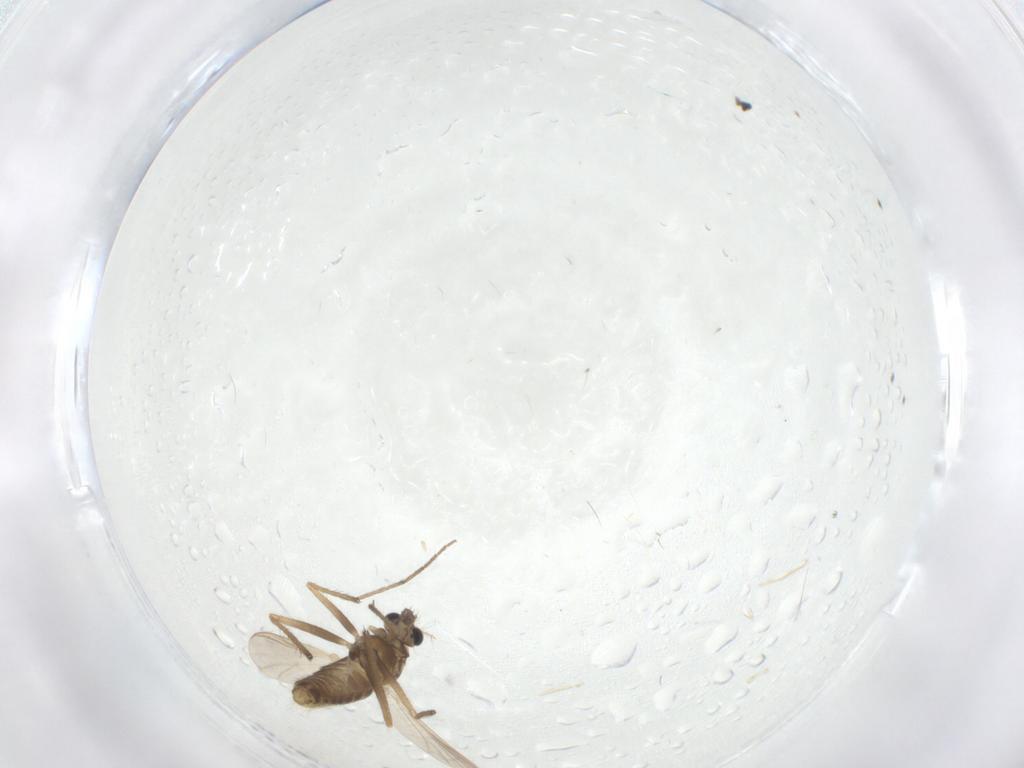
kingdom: Animalia
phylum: Arthropoda
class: Insecta
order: Diptera
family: Chironomidae
